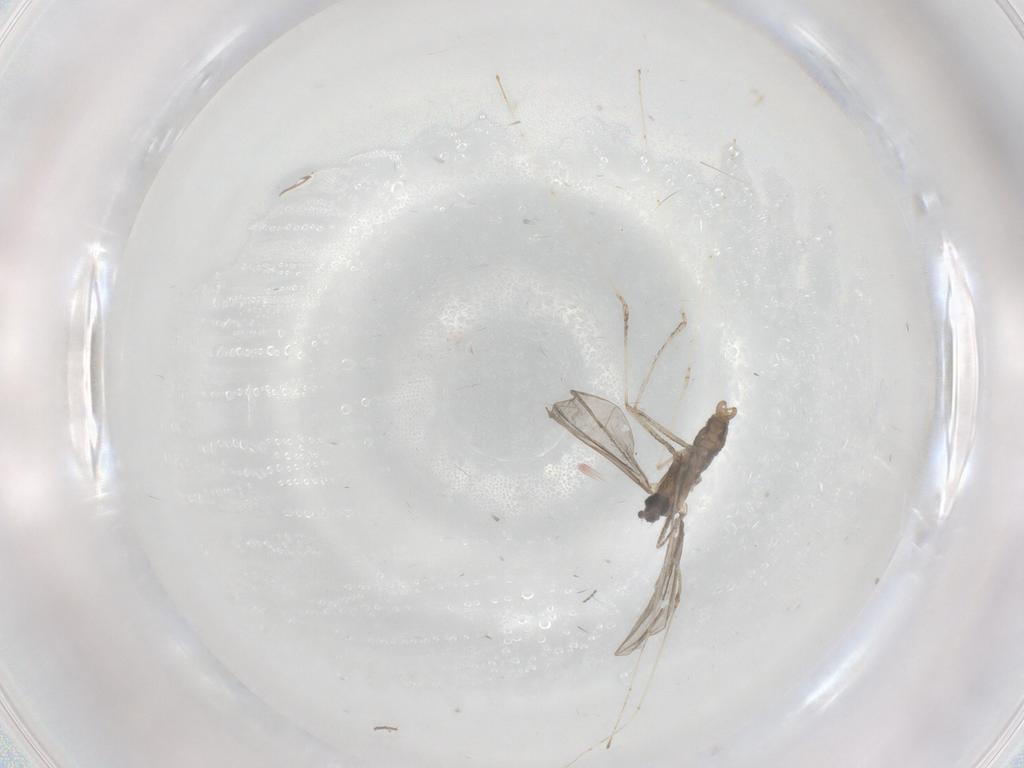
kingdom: Animalia
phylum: Arthropoda
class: Insecta
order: Diptera
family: Cecidomyiidae
